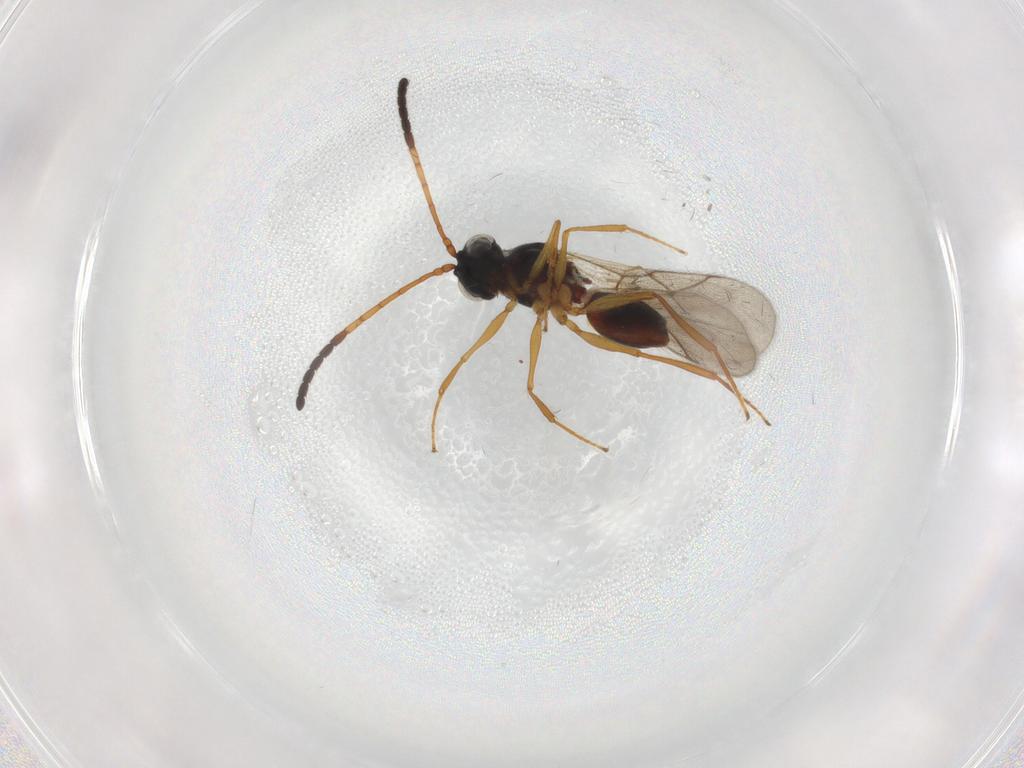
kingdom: Animalia
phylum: Arthropoda
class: Insecta
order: Hymenoptera
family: Figitidae
